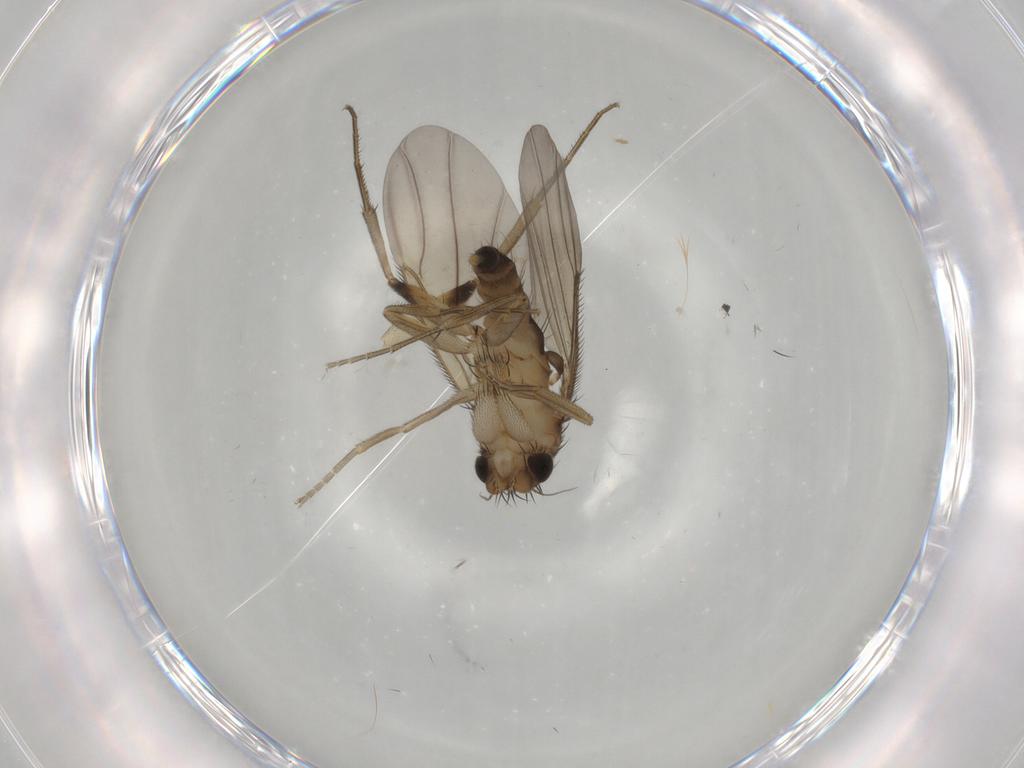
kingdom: Animalia
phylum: Arthropoda
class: Insecta
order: Diptera
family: Phoridae
